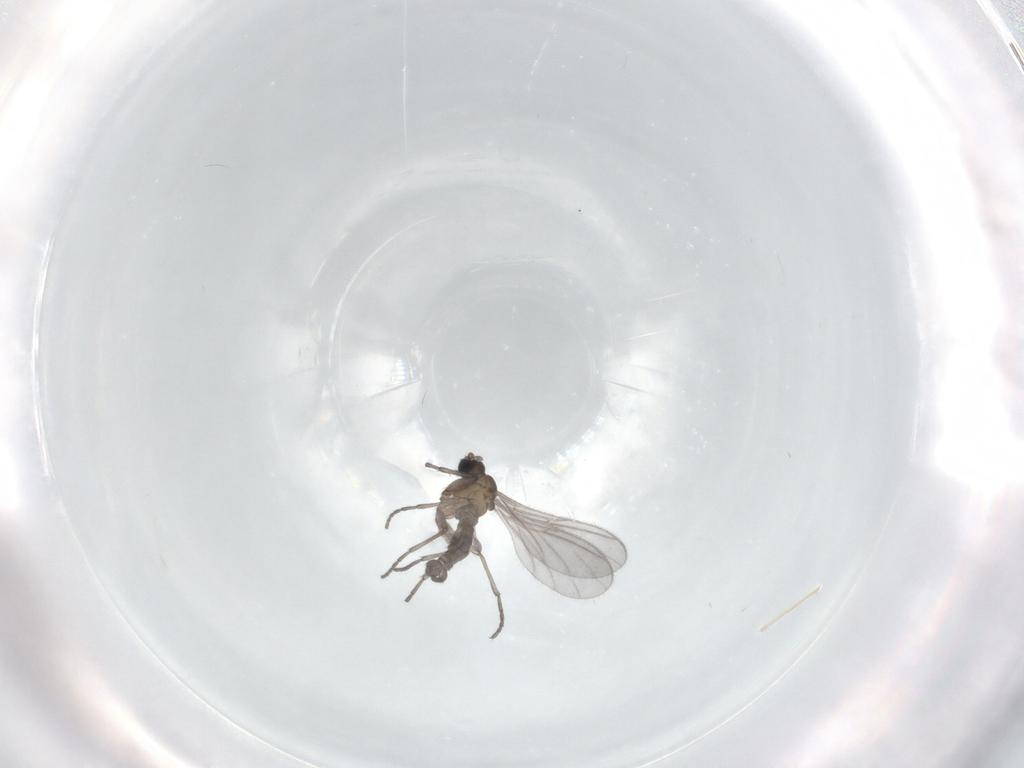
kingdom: Animalia
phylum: Arthropoda
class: Insecta
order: Diptera
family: Sciaridae
